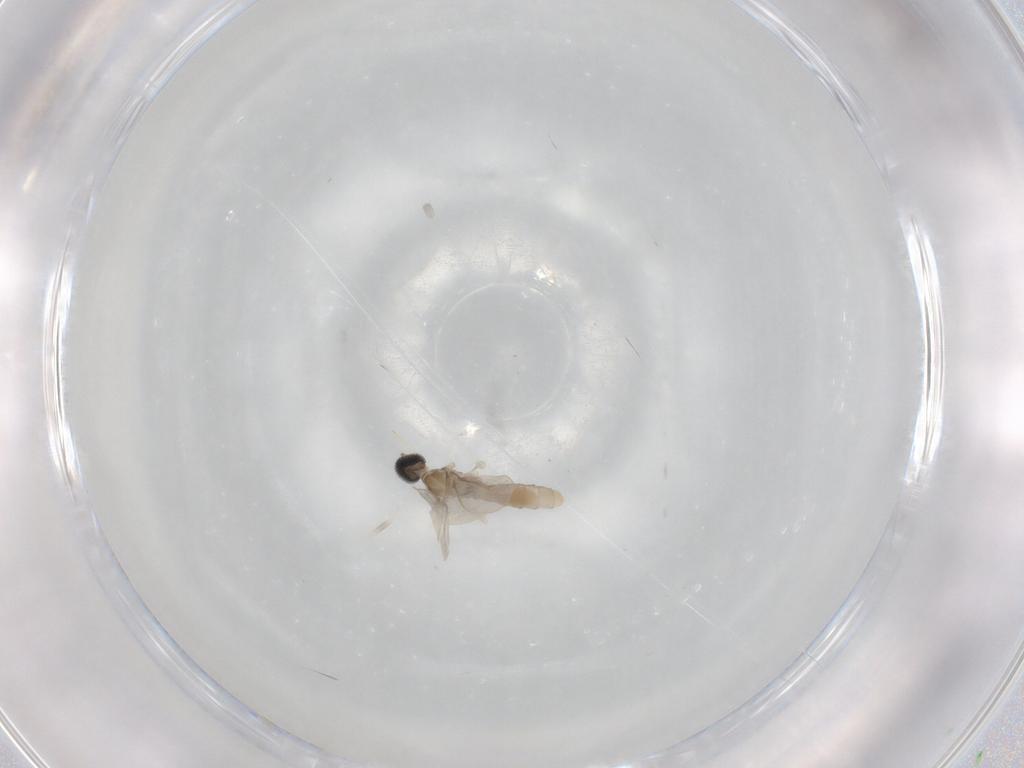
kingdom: Animalia
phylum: Arthropoda
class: Insecta
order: Diptera
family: Cecidomyiidae
